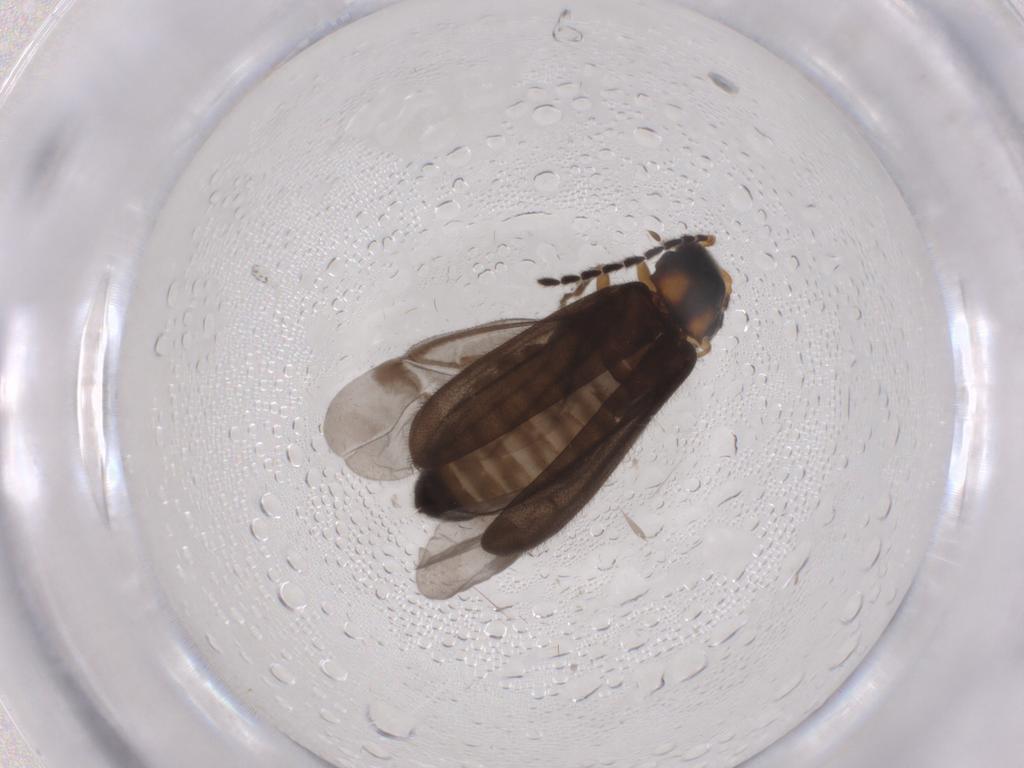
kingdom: Animalia
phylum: Arthropoda
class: Insecta
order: Coleoptera
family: Cantharidae
